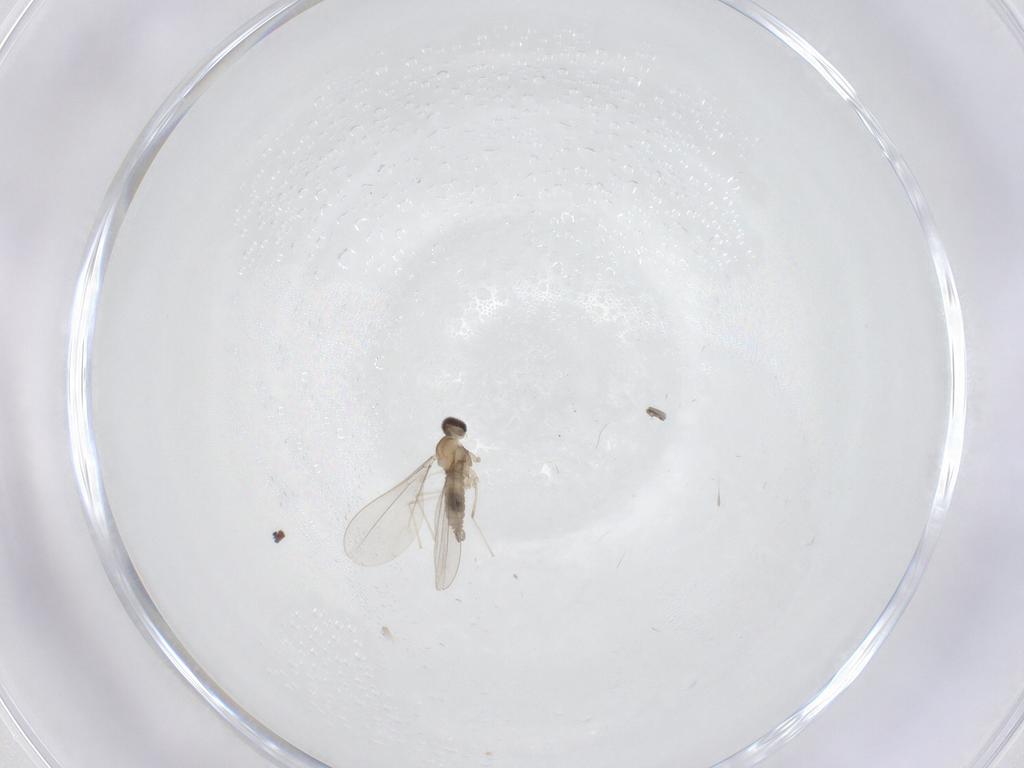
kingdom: Animalia
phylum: Arthropoda
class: Insecta
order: Diptera
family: Cecidomyiidae
